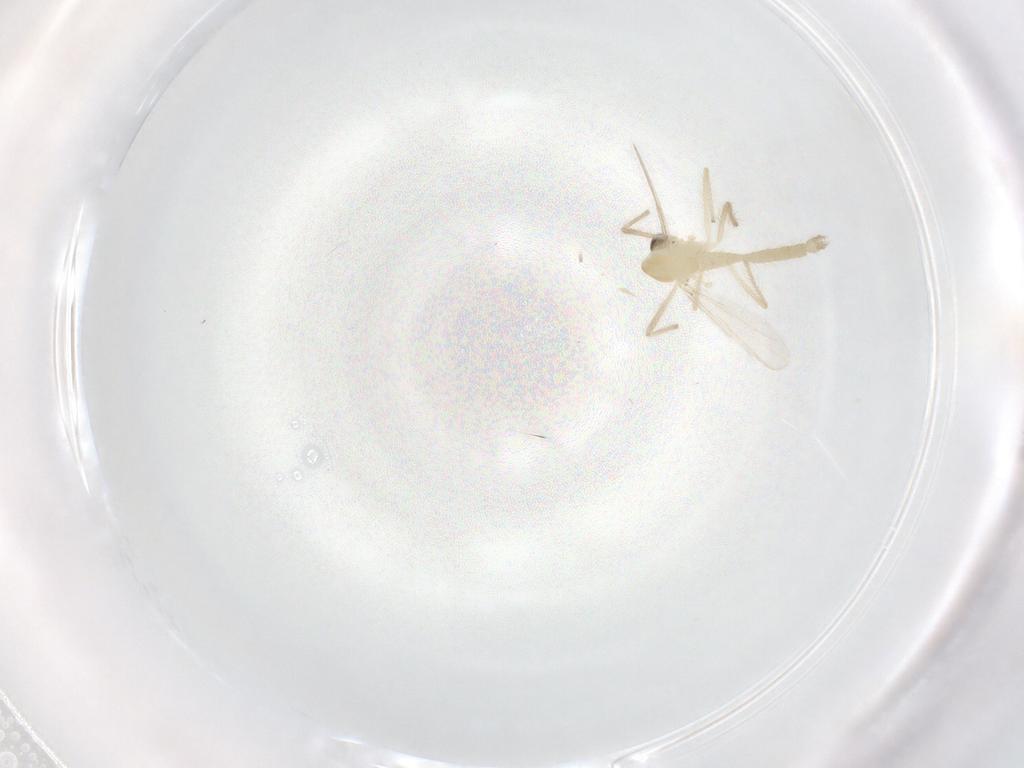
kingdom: Animalia
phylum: Arthropoda
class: Insecta
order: Diptera
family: Chironomidae
